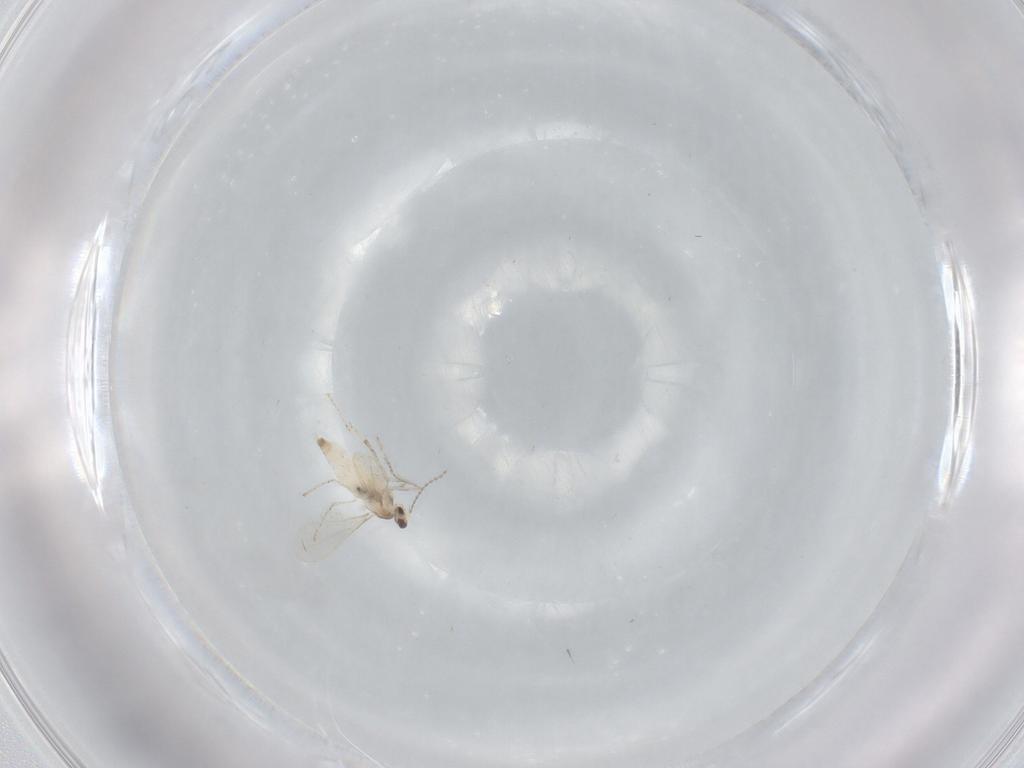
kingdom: Animalia
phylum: Arthropoda
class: Insecta
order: Diptera
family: Cecidomyiidae
